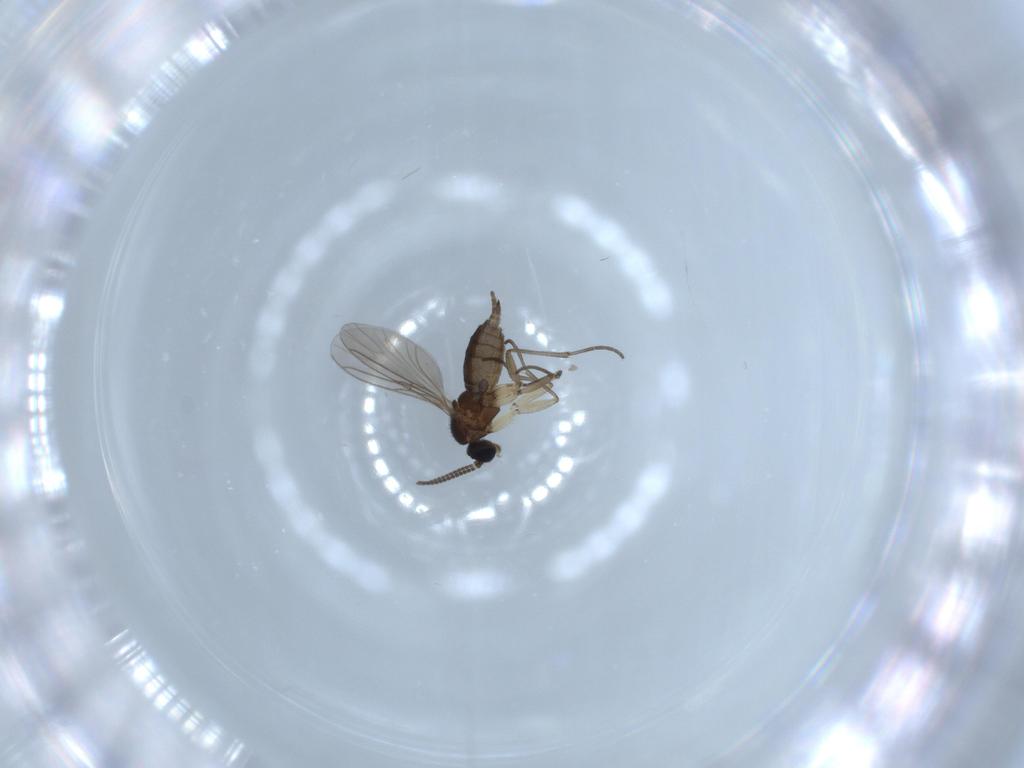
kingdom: Animalia
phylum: Arthropoda
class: Insecta
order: Diptera
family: Sciaridae
